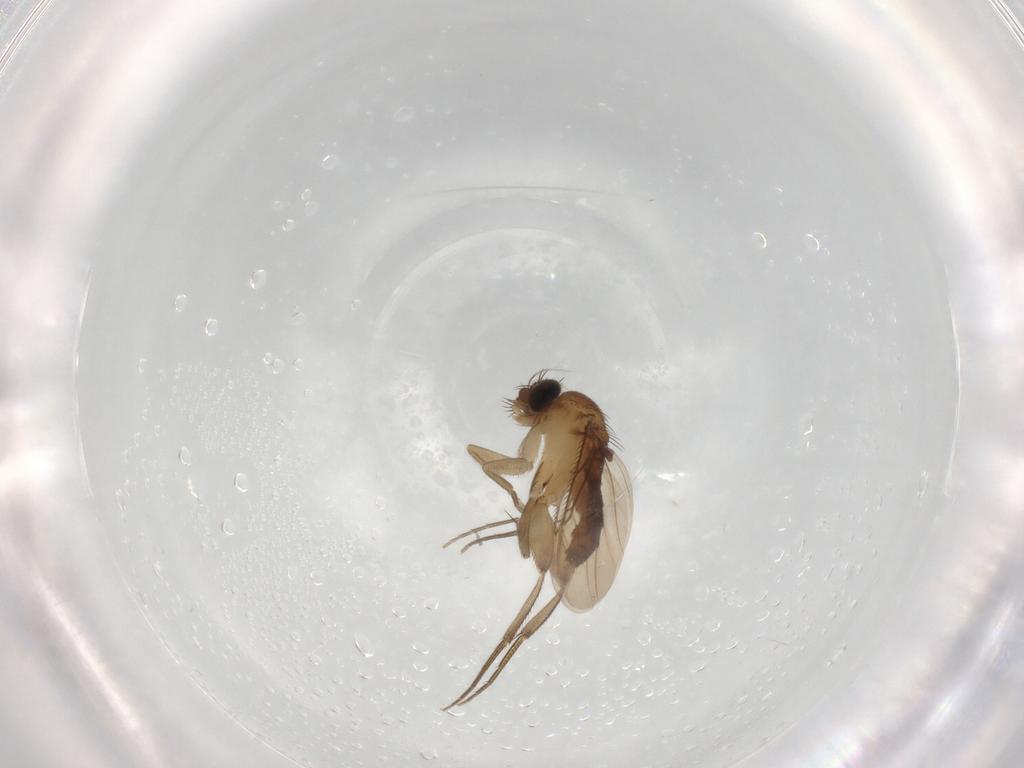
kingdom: Animalia
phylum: Arthropoda
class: Insecta
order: Diptera
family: Phoridae
